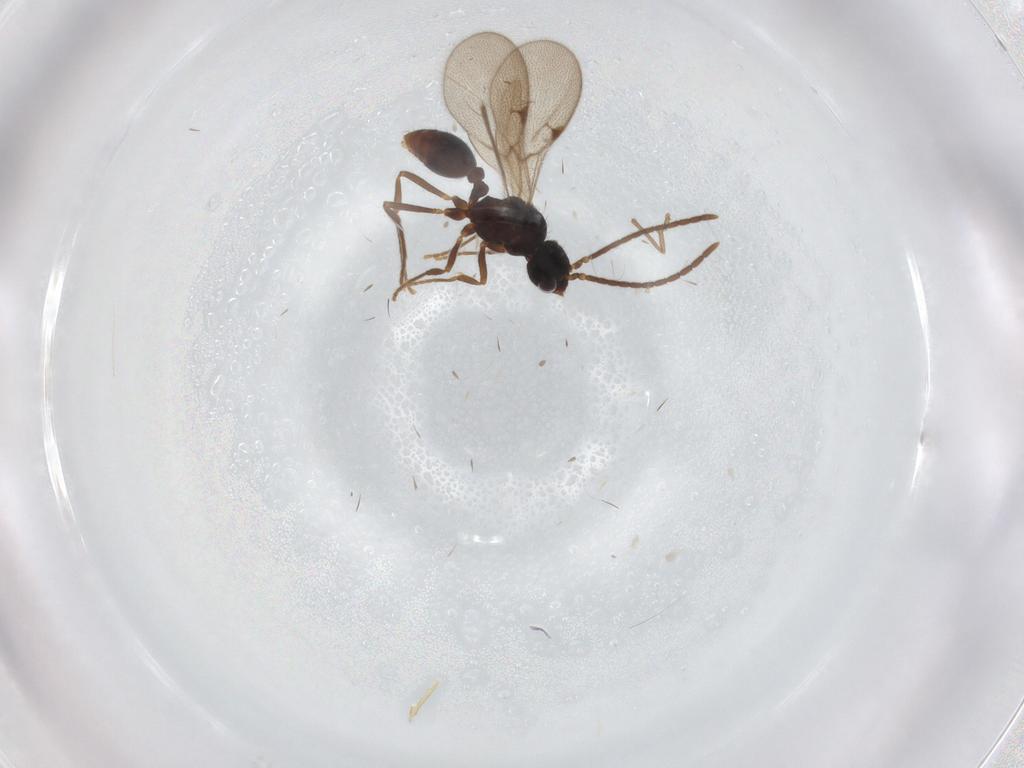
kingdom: Animalia
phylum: Arthropoda
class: Insecta
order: Hymenoptera
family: Formicidae
